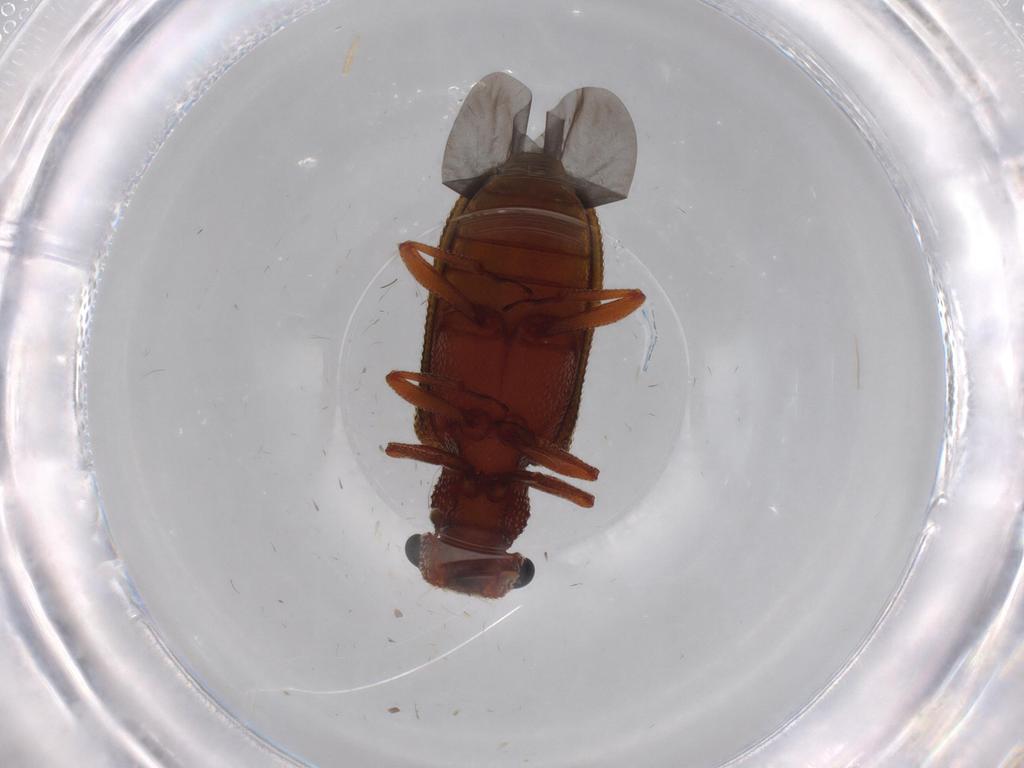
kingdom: Animalia
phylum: Arthropoda
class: Insecta
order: Coleoptera
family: Zopheridae
